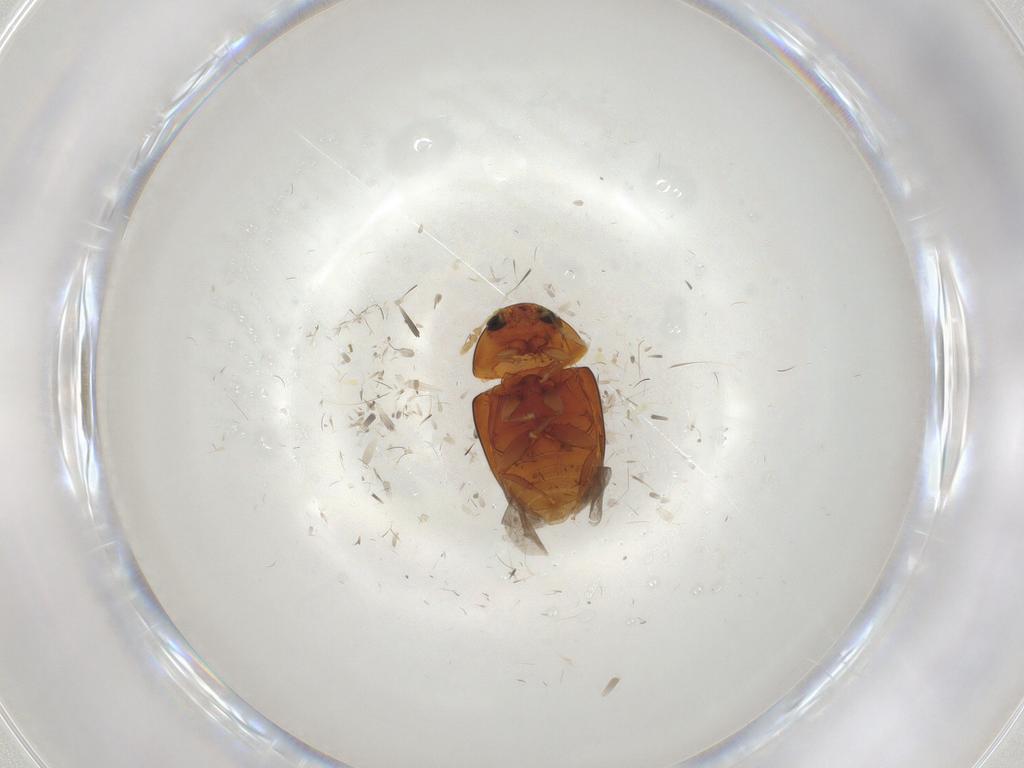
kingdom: Animalia
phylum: Arthropoda
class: Insecta
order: Coleoptera
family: Phalacridae
